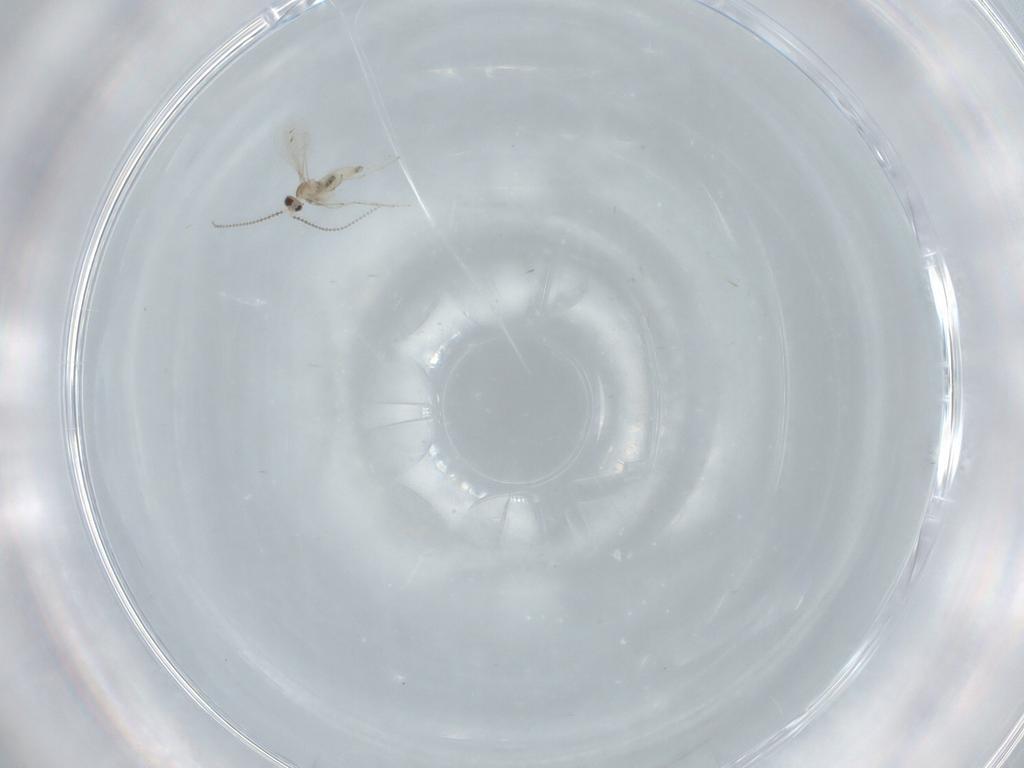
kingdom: Animalia
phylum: Arthropoda
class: Insecta
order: Diptera
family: Cecidomyiidae
